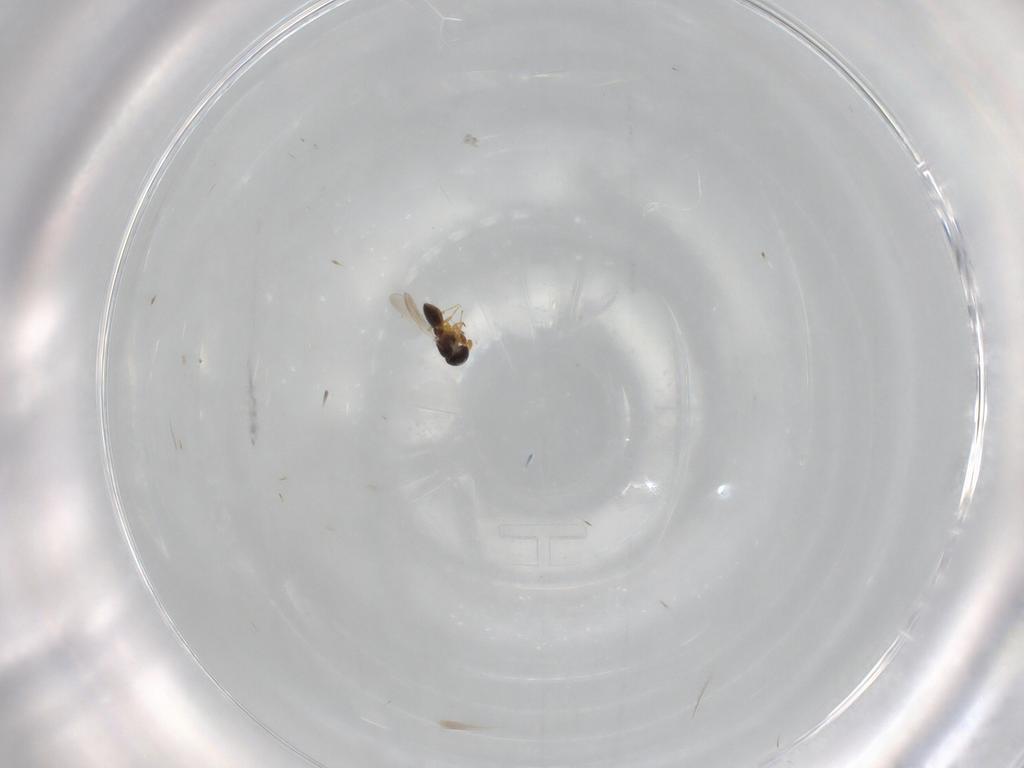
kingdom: Animalia
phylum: Arthropoda
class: Insecta
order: Hymenoptera
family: Platygastridae
